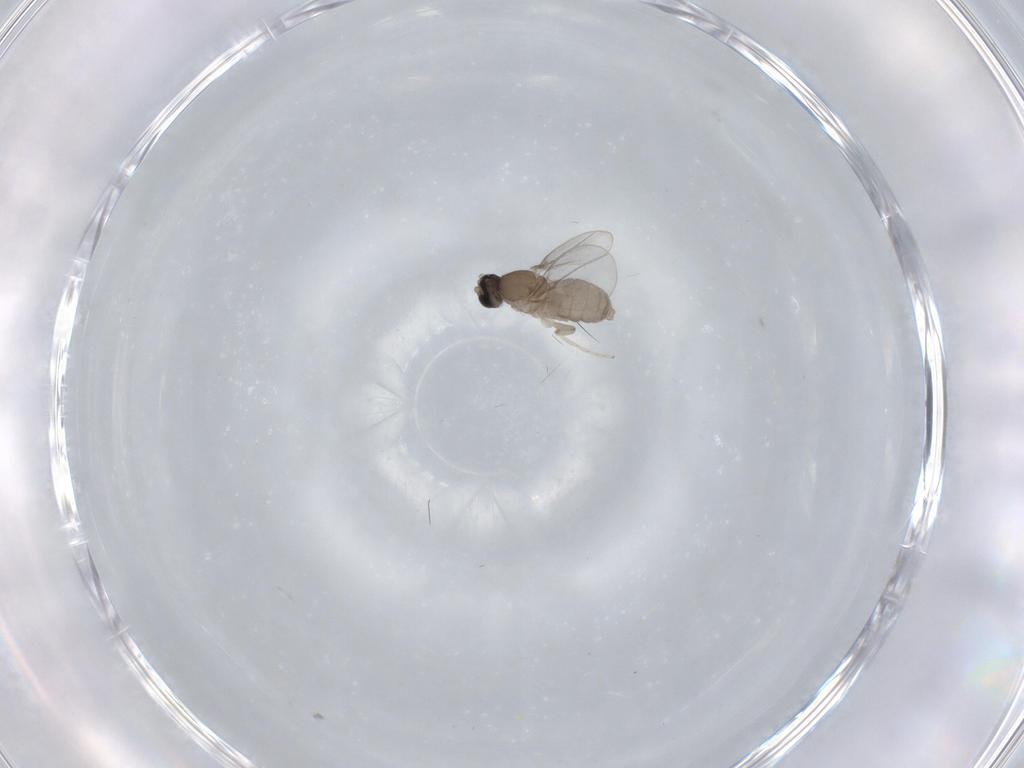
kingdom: Animalia
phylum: Arthropoda
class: Insecta
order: Diptera
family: Cecidomyiidae
